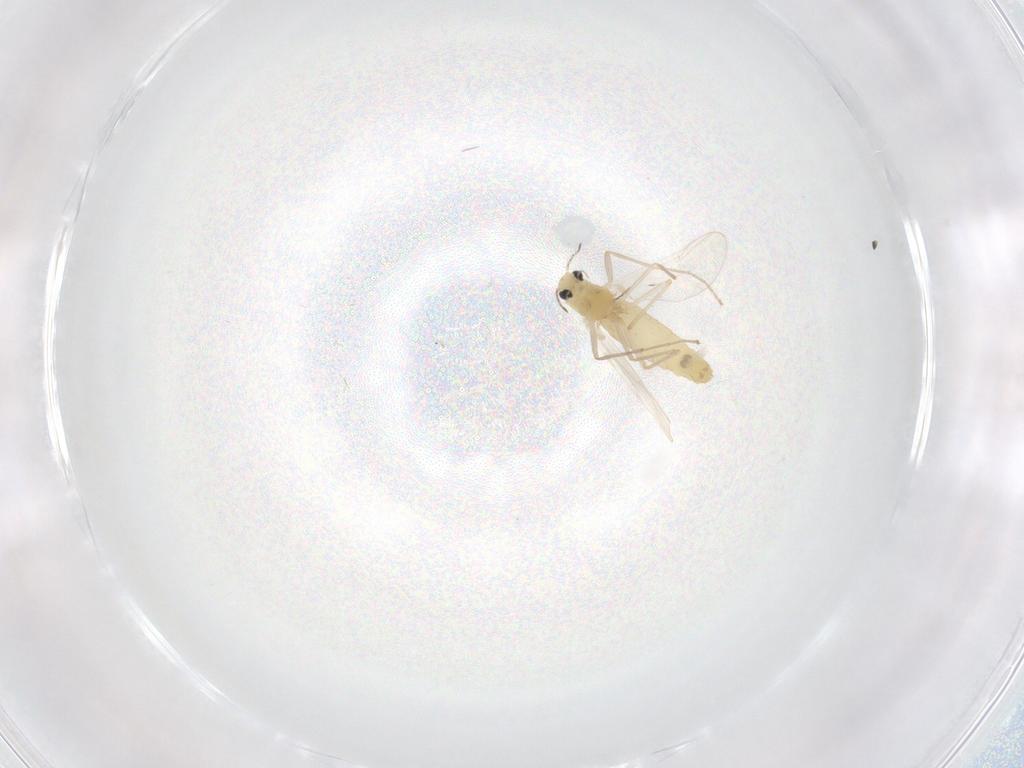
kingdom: Animalia
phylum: Arthropoda
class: Insecta
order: Diptera
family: Chironomidae
